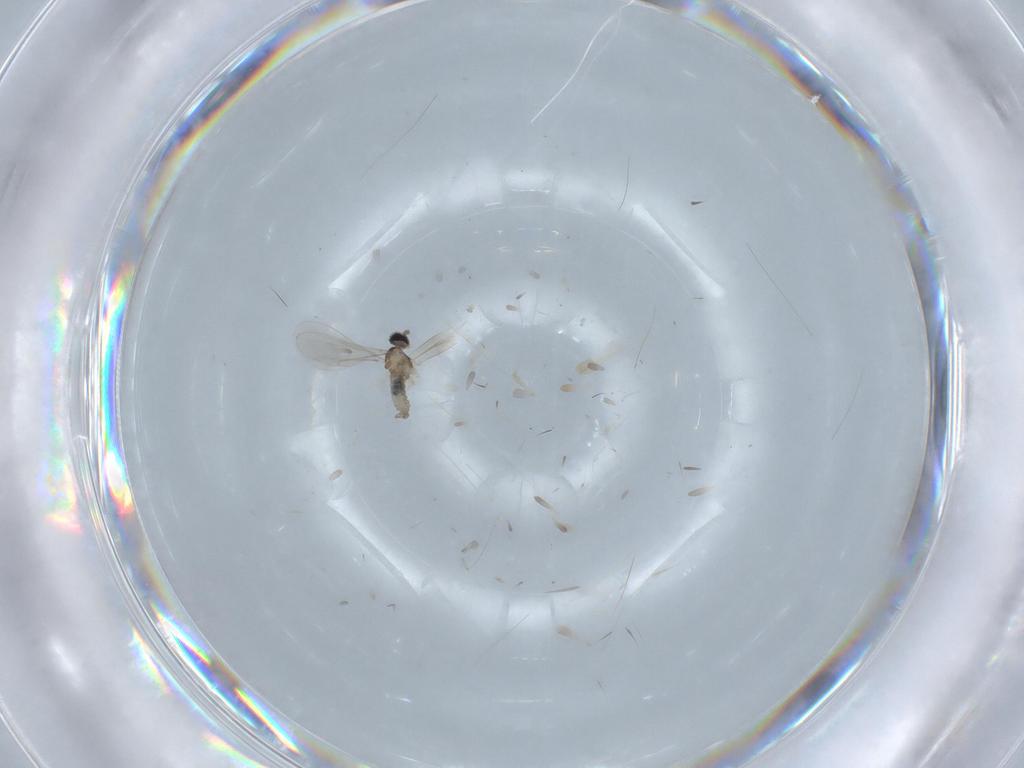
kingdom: Animalia
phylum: Arthropoda
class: Insecta
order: Diptera
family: Cecidomyiidae
